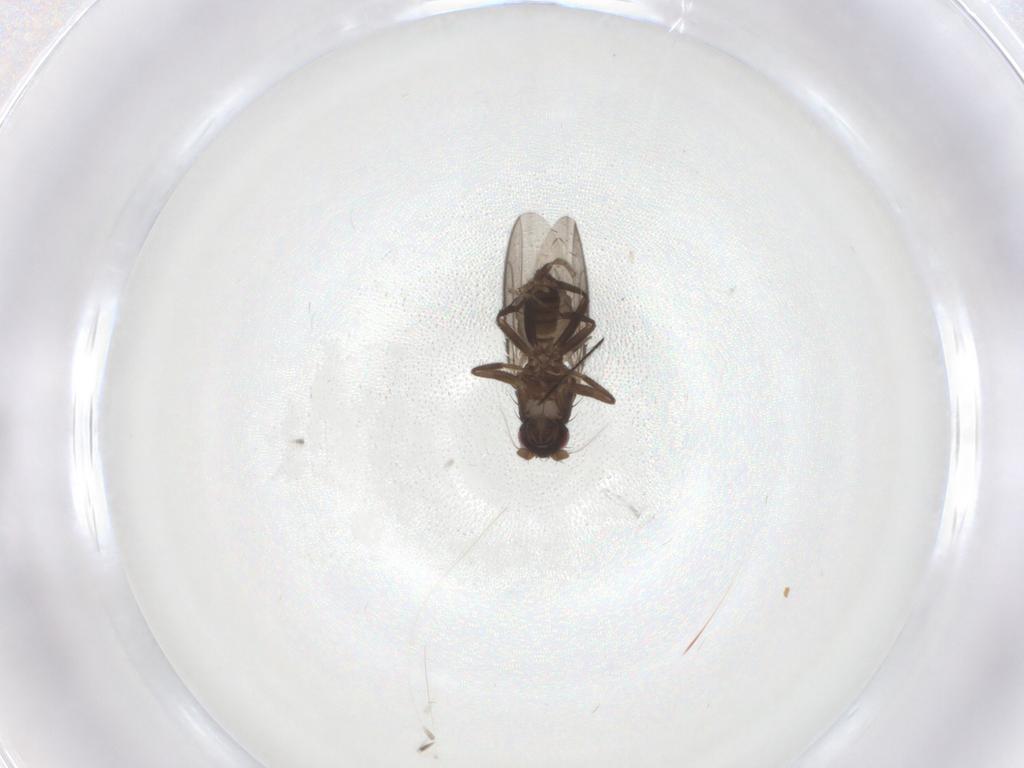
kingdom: Animalia
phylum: Arthropoda
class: Insecta
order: Diptera
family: Sphaeroceridae
